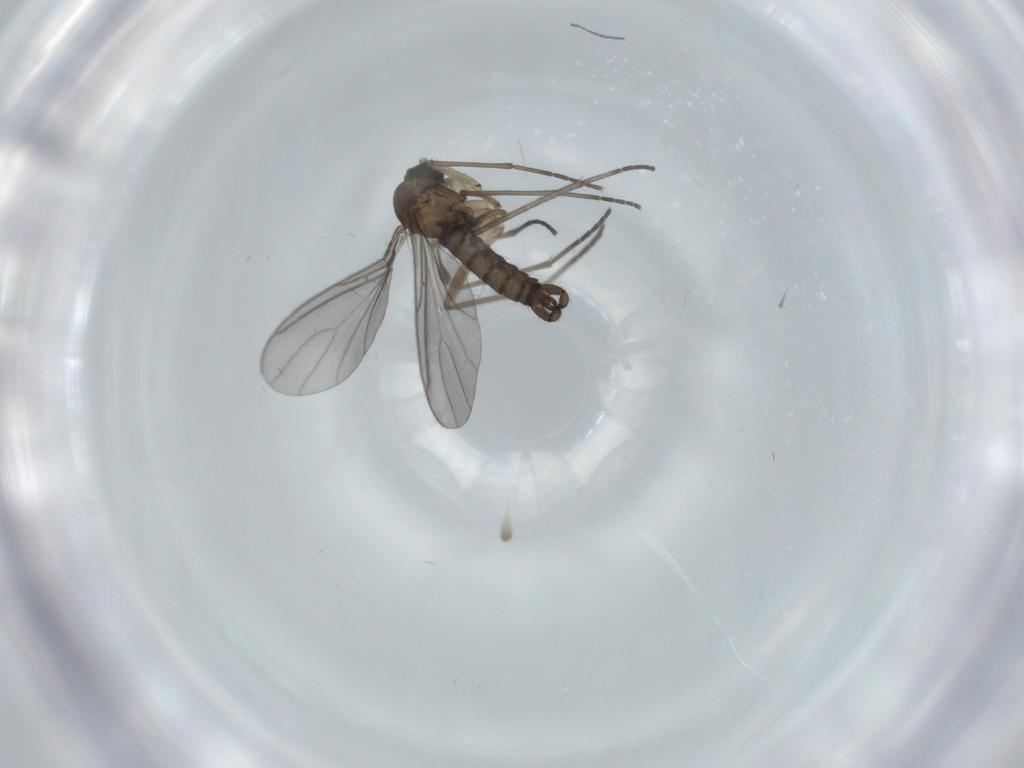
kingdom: Animalia
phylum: Arthropoda
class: Insecta
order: Diptera
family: Sciaridae
